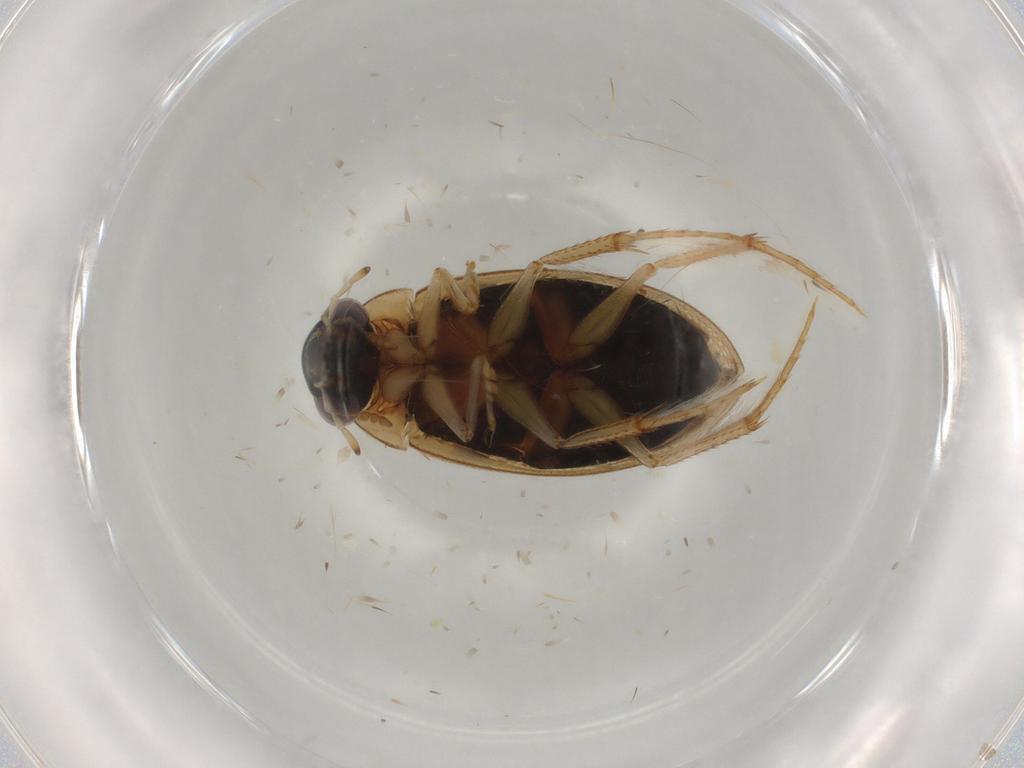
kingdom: Animalia
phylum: Arthropoda
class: Insecta
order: Coleoptera
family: Hydrophilidae
